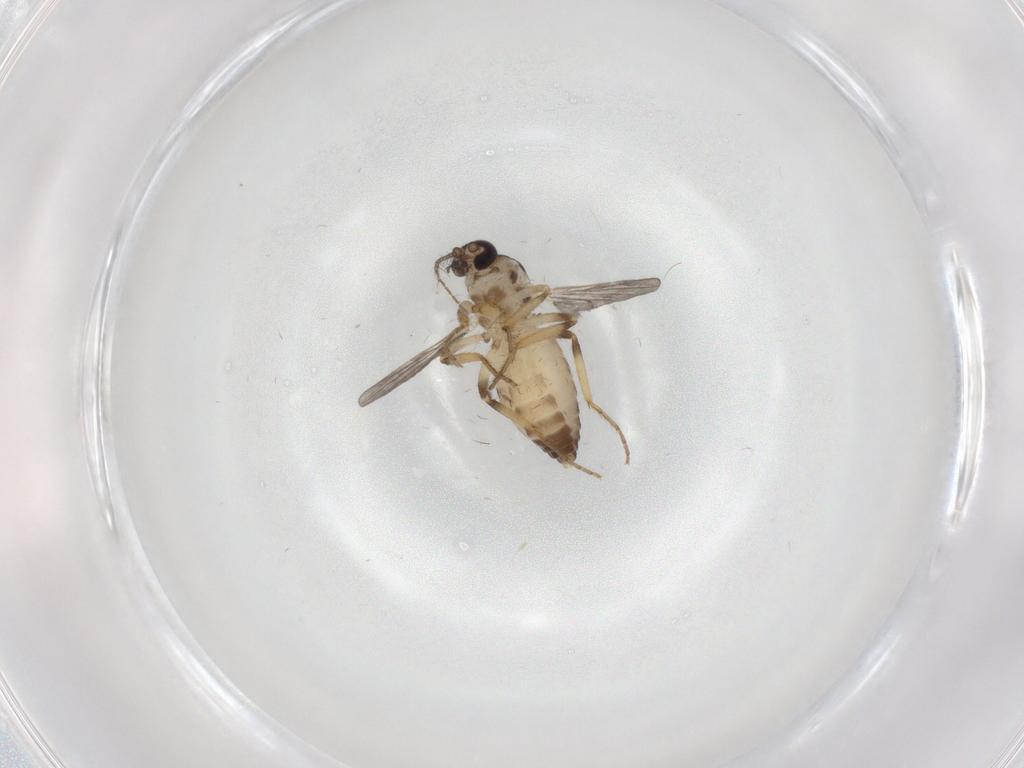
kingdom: Animalia
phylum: Arthropoda
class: Insecta
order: Diptera
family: Ceratopogonidae
